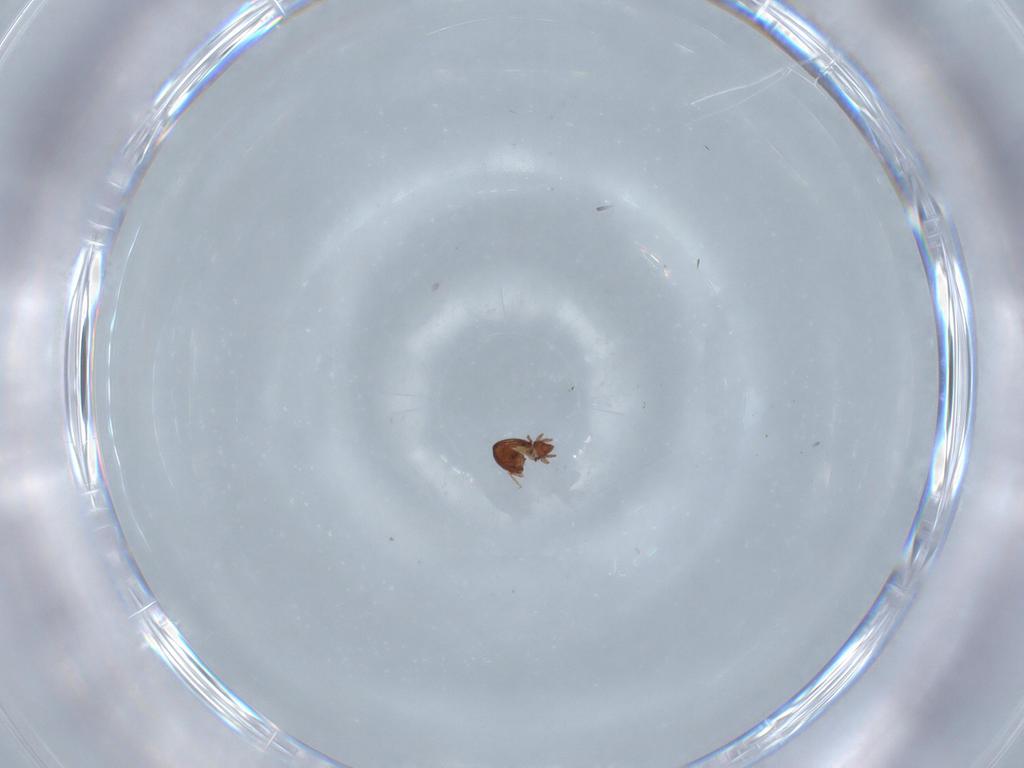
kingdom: Animalia
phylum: Arthropoda
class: Arachnida
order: Sarcoptiformes
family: Oribatulidae
